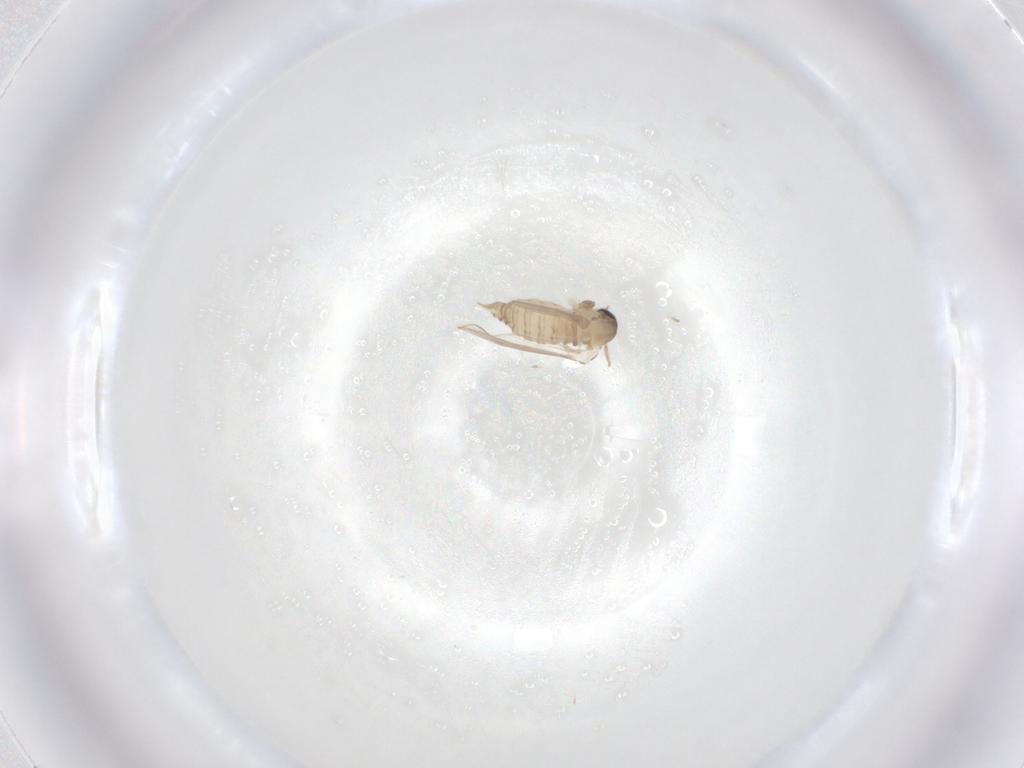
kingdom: Animalia
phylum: Arthropoda
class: Insecta
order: Diptera
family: Psychodidae
